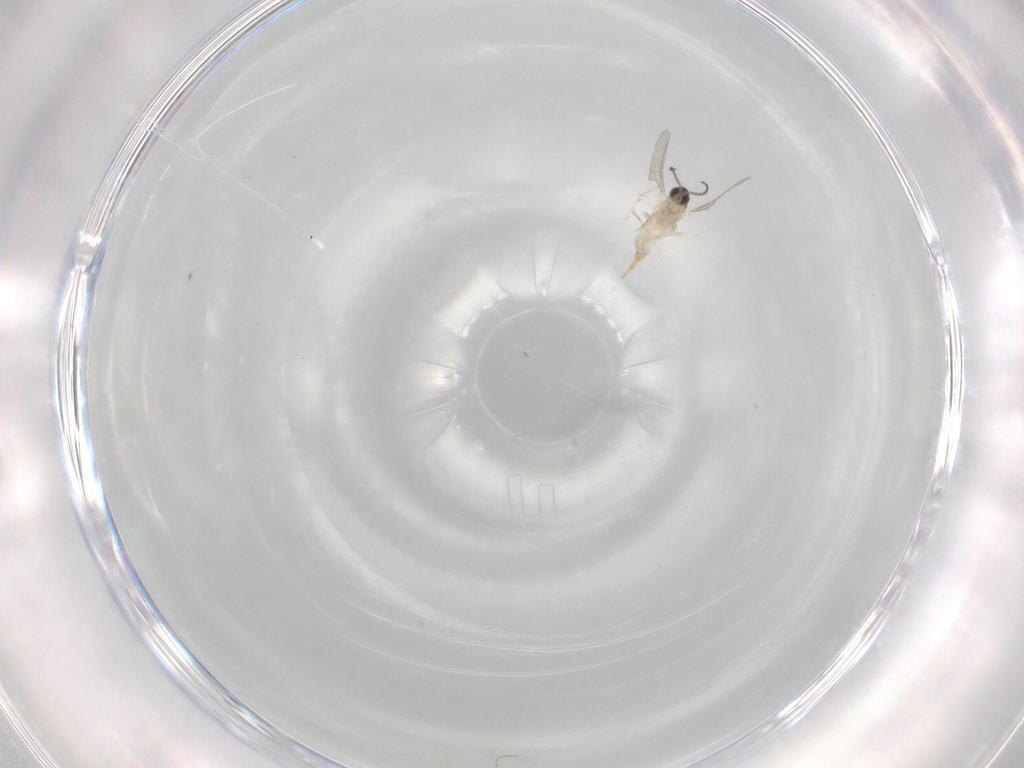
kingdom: Animalia
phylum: Arthropoda
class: Insecta
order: Diptera
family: Cecidomyiidae
